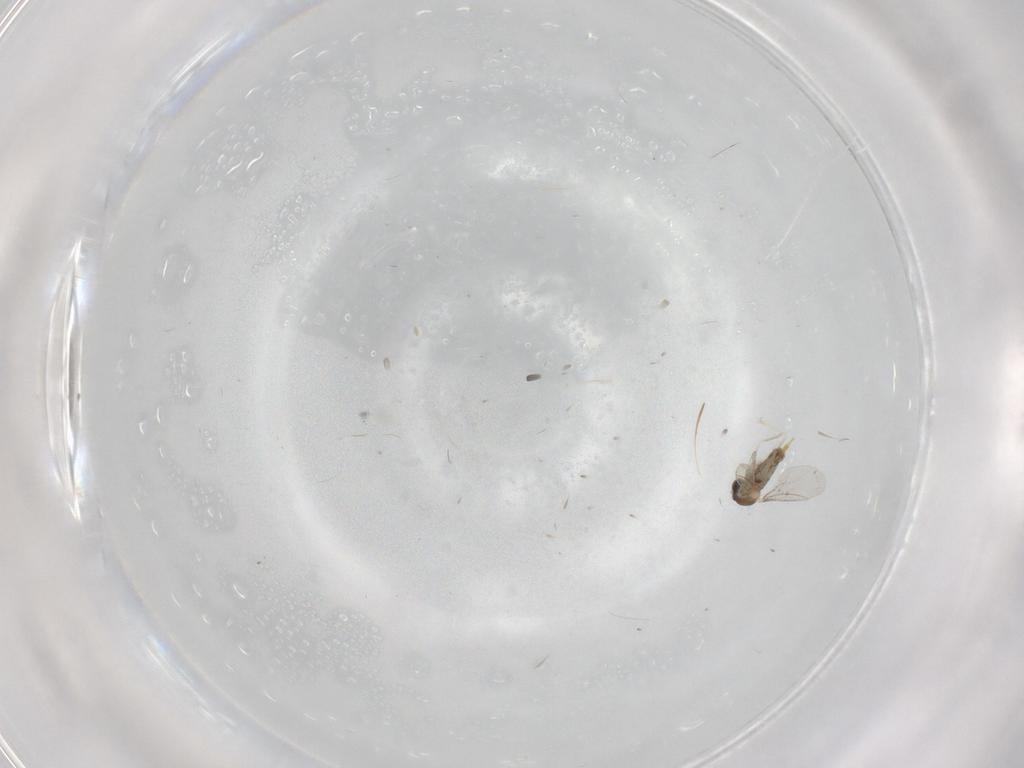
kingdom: Animalia
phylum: Arthropoda
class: Insecta
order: Diptera
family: Cecidomyiidae
